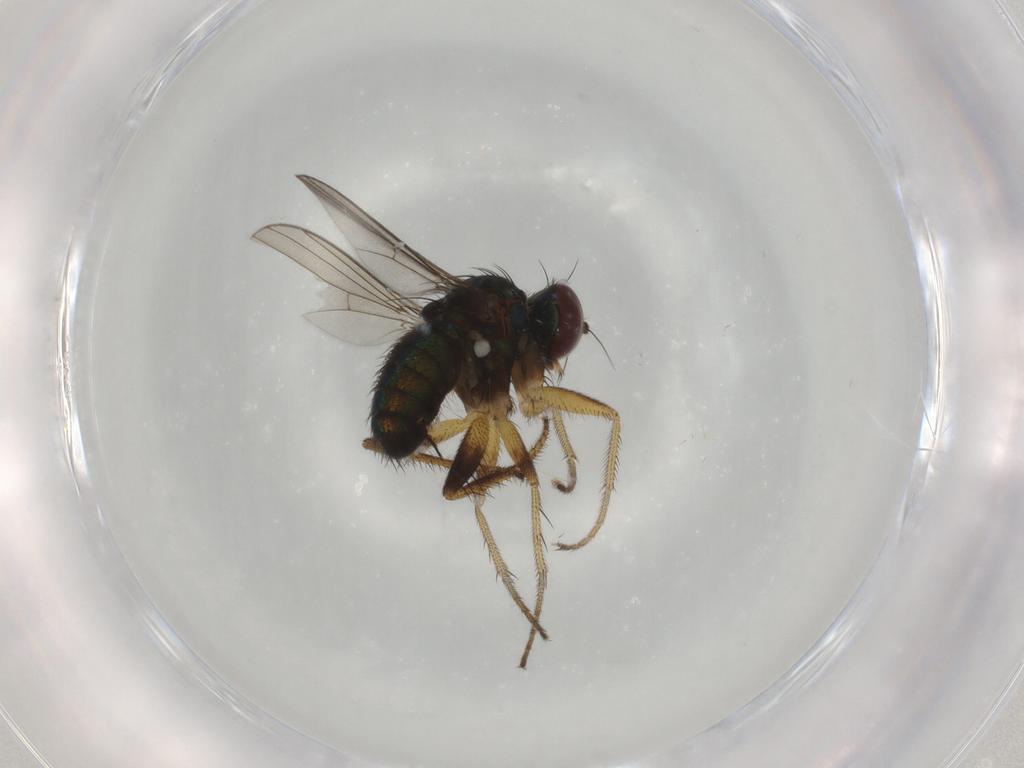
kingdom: Animalia
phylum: Arthropoda
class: Insecta
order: Diptera
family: Dolichopodidae
